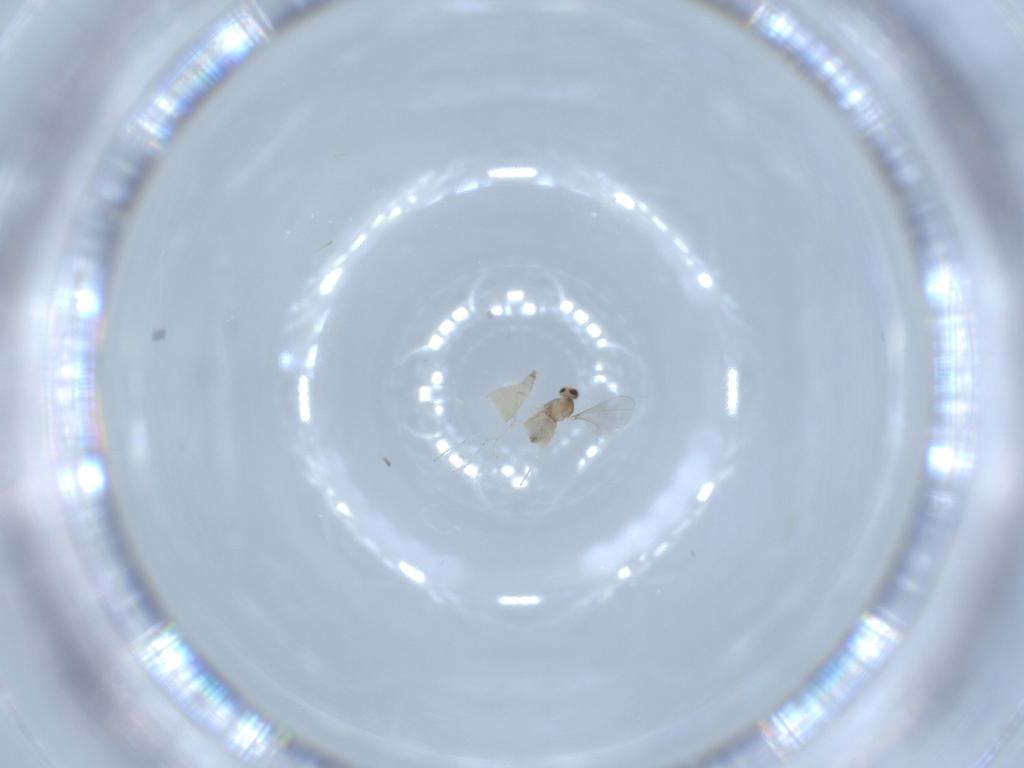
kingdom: Animalia
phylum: Arthropoda
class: Insecta
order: Diptera
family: Cecidomyiidae
